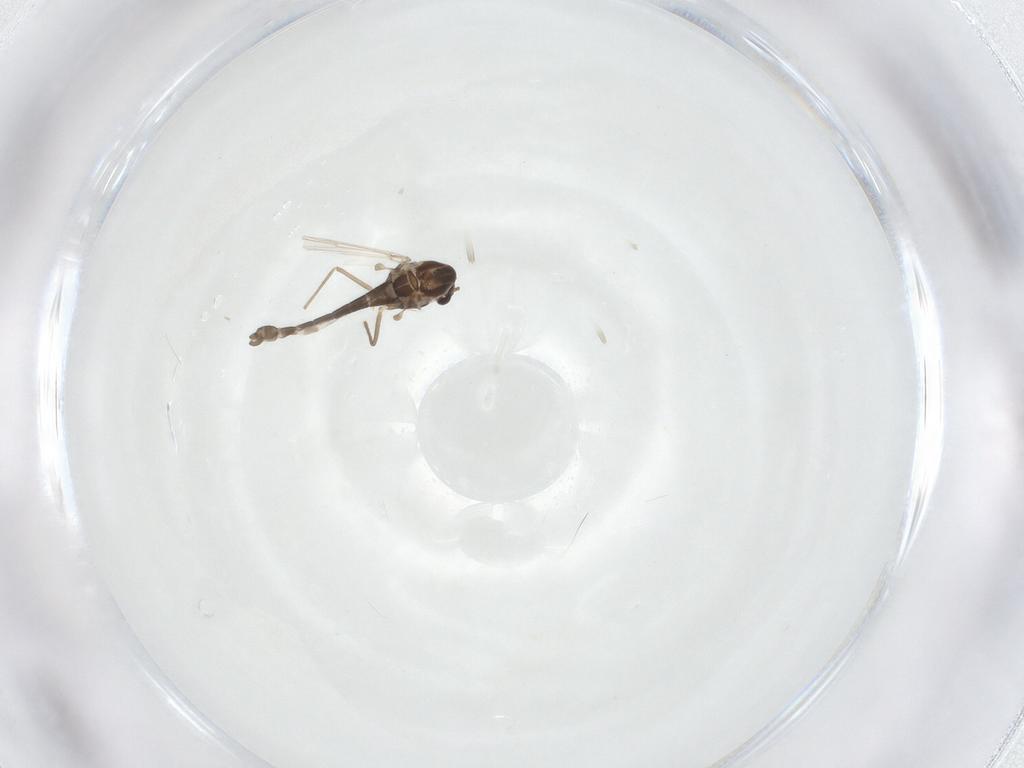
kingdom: Animalia
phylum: Arthropoda
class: Insecta
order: Diptera
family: Chironomidae
